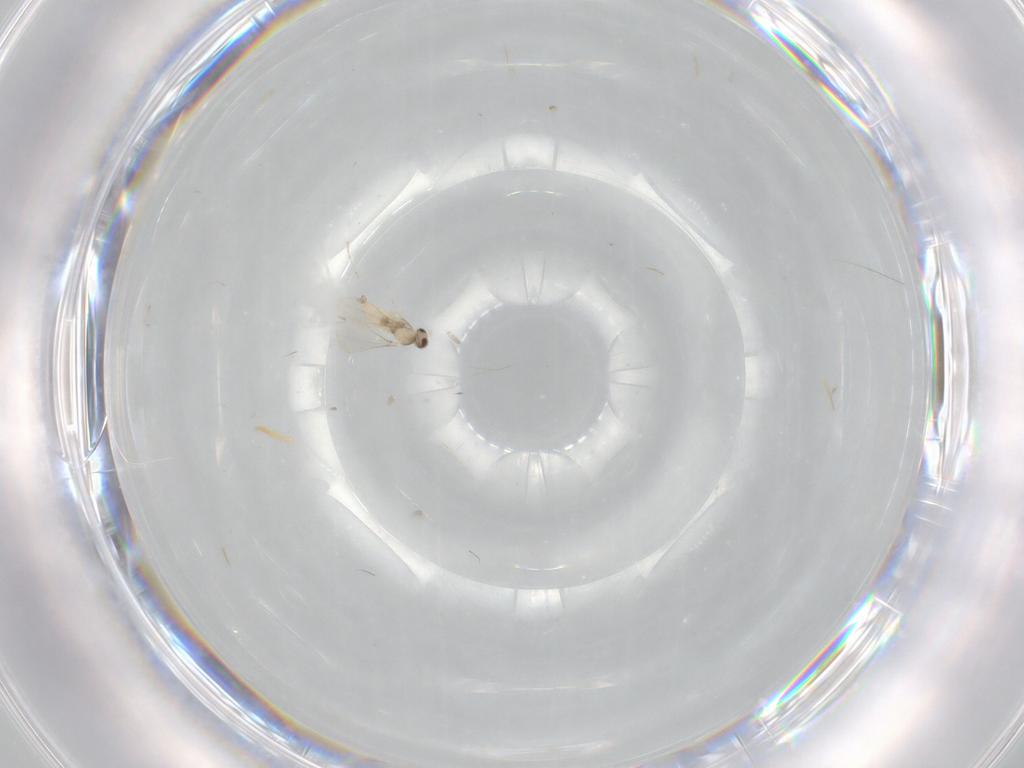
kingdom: Animalia
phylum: Arthropoda
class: Insecta
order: Diptera
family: Cecidomyiidae
